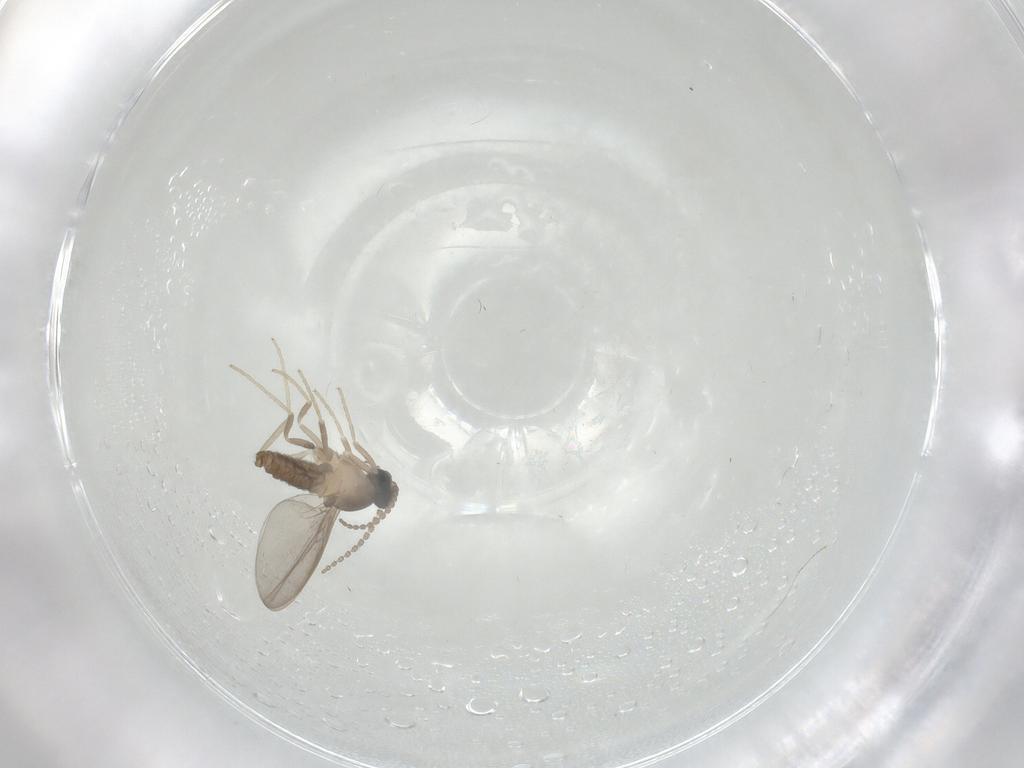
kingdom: Animalia
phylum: Arthropoda
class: Insecta
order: Diptera
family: Cecidomyiidae
